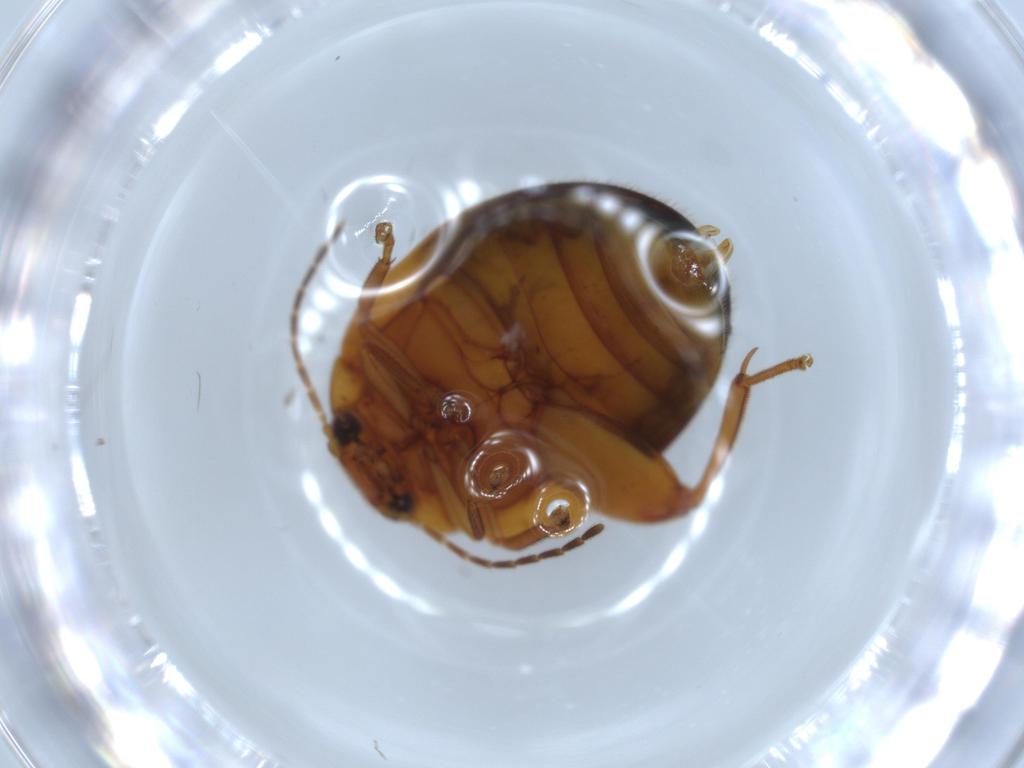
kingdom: Animalia
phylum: Arthropoda
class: Insecta
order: Coleoptera
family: Scirtidae
